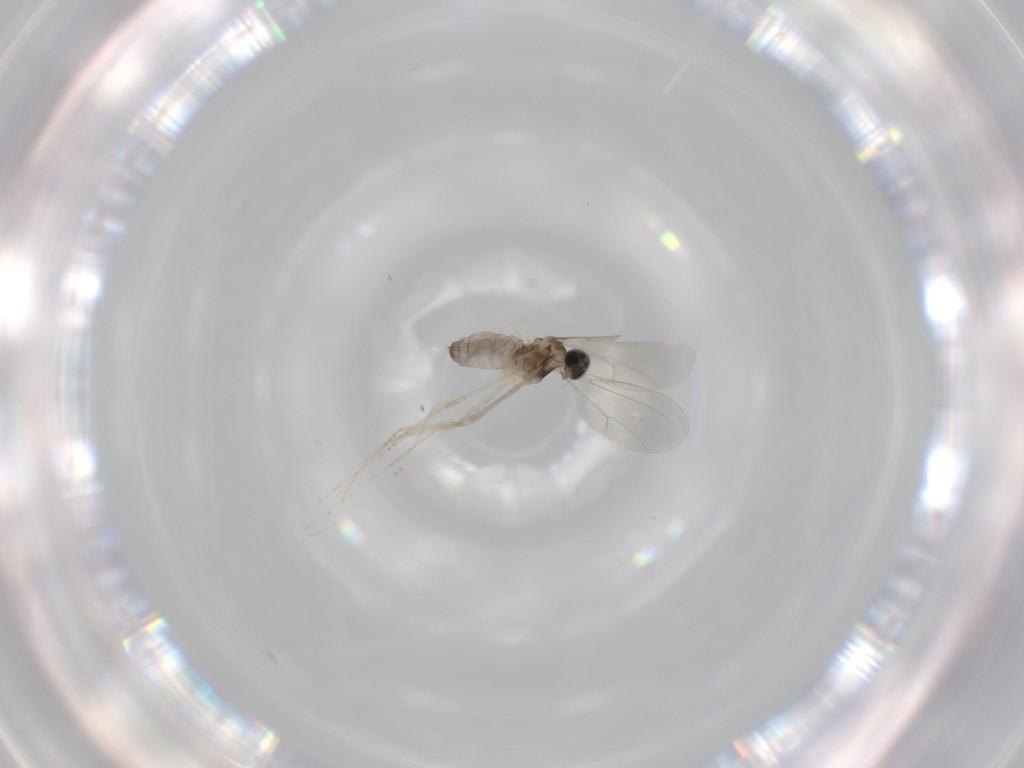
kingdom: Animalia
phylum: Arthropoda
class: Insecta
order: Diptera
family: Cecidomyiidae
